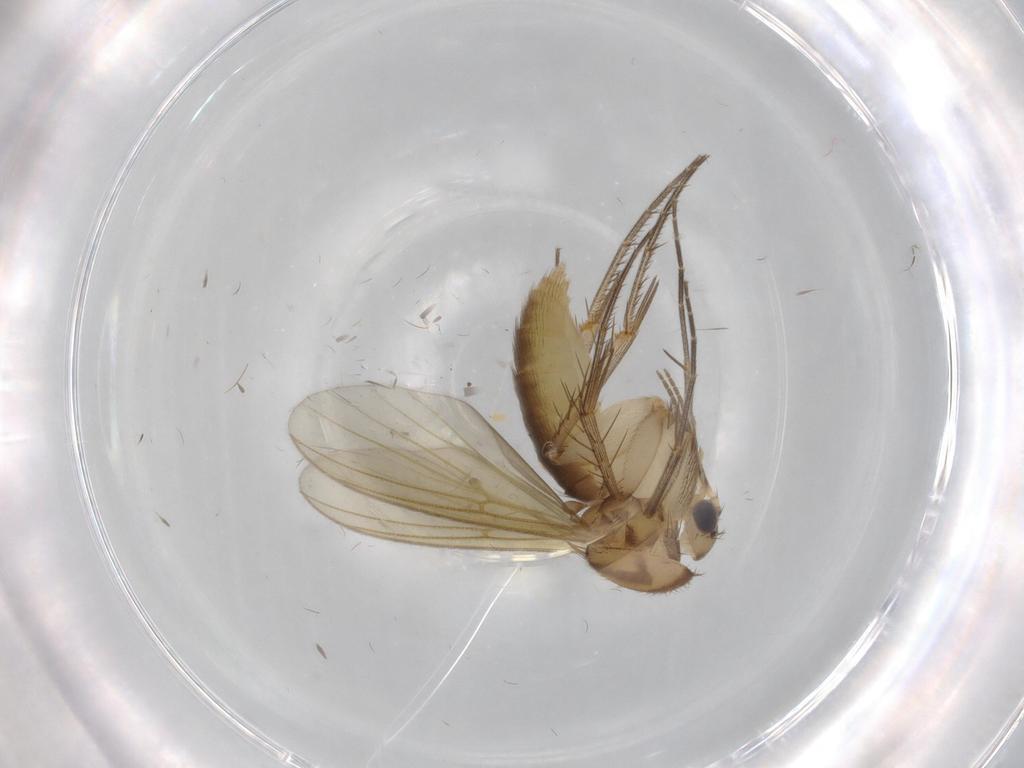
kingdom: Animalia
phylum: Arthropoda
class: Insecta
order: Diptera
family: Mycetophilidae
